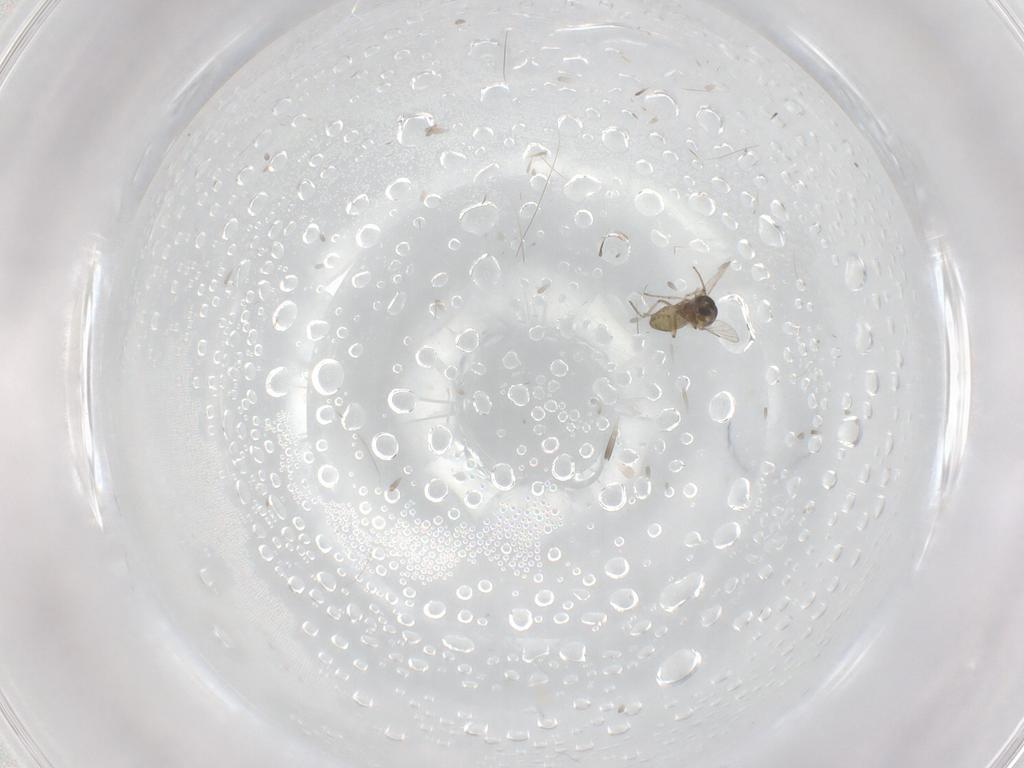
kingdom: Animalia
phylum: Arthropoda
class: Insecta
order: Diptera
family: Ceratopogonidae
